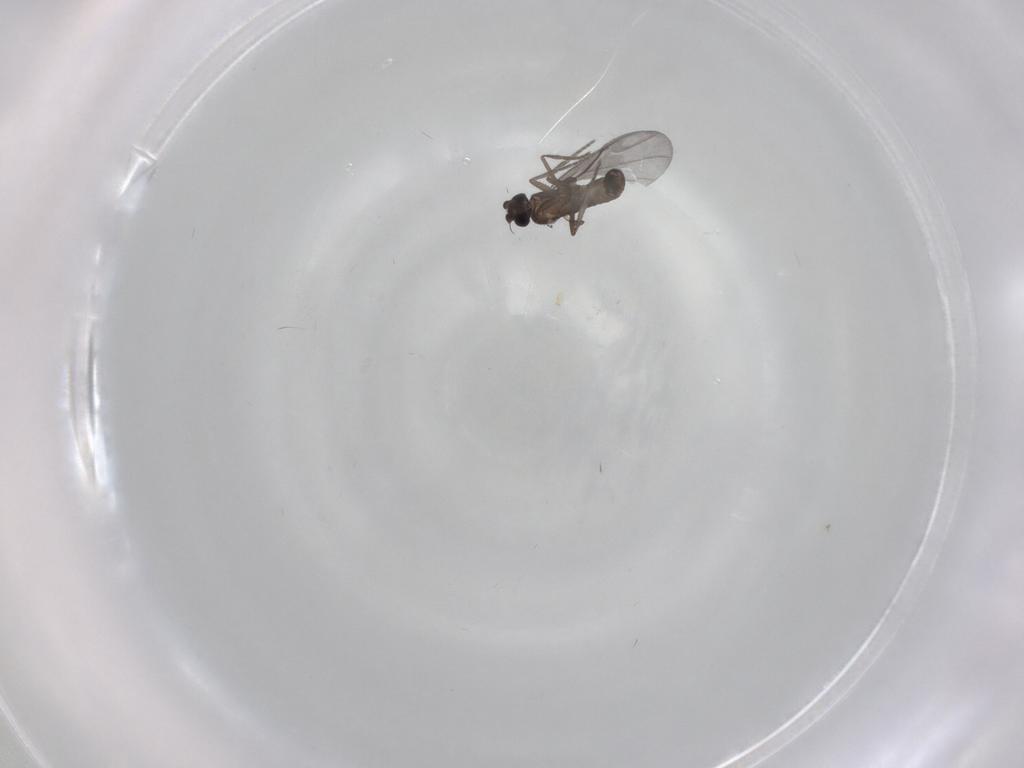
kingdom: Animalia
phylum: Arthropoda
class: Insecta
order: Diptera
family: Phoridae
